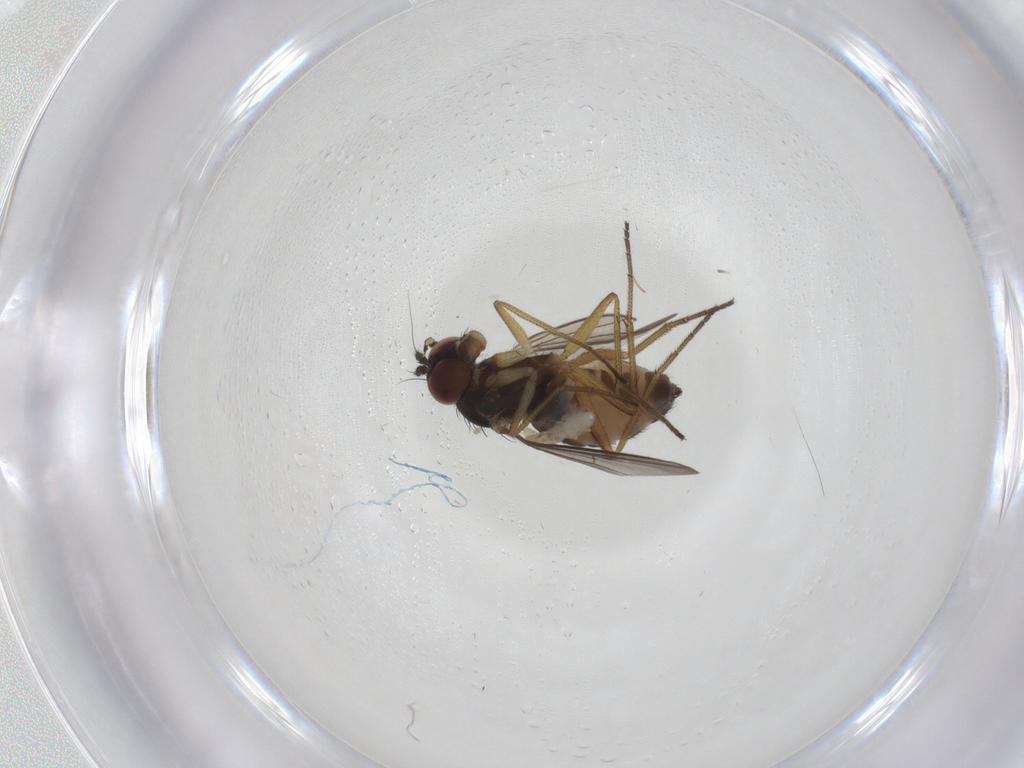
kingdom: Animalia
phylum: Arthropoda
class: Insecta
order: Diptera
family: Dolichopodidae
